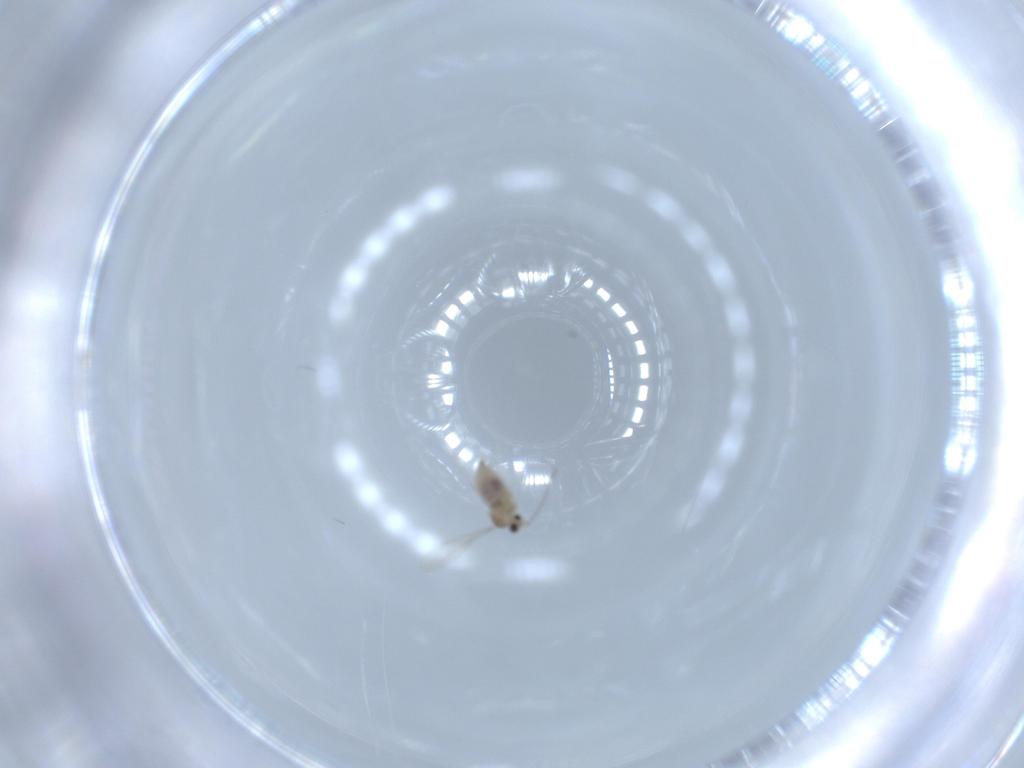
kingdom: Animalia
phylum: Arthropoda
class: Insecta
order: Diptera
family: Cecidomyiidae
